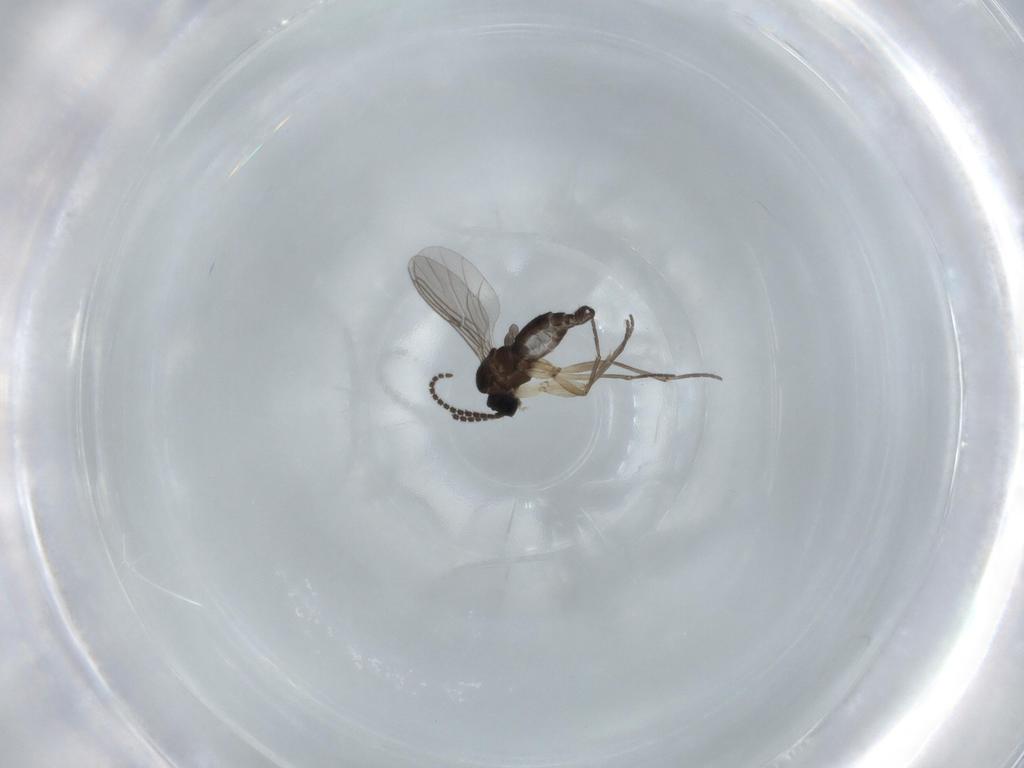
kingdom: Animalia
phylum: Arthropoda
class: Insecta
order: Diptera
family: Sciaridae
